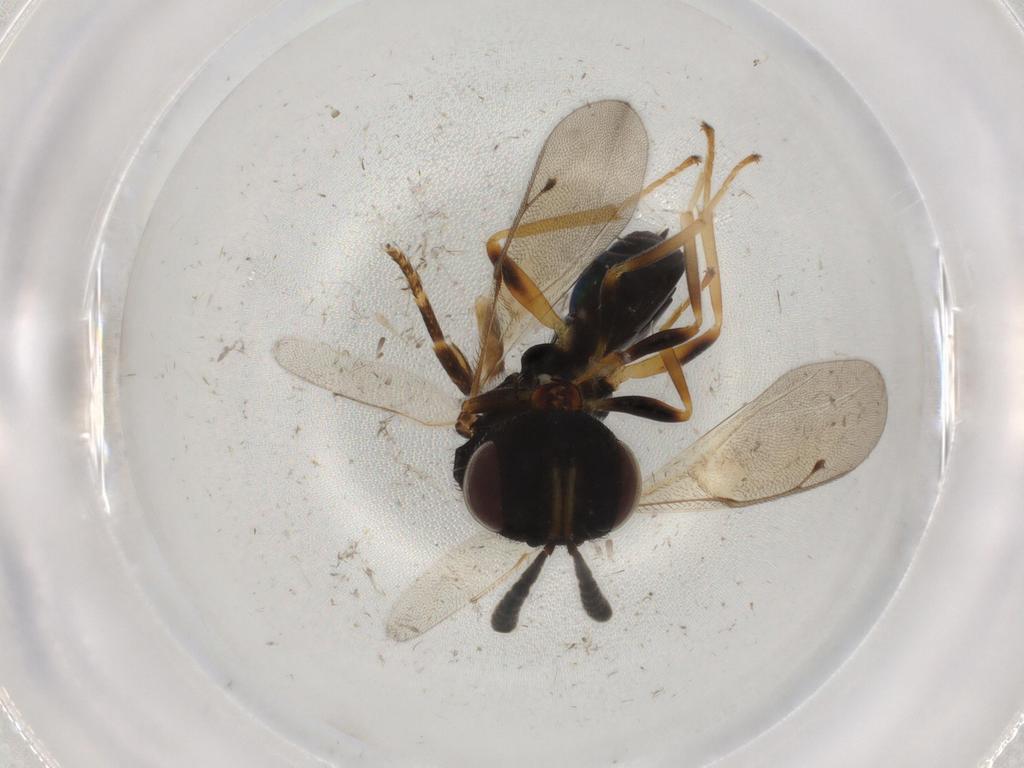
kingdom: Animalia
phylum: Arthropoda
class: Insecta
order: Hymenoptera
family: Pteromalidae
